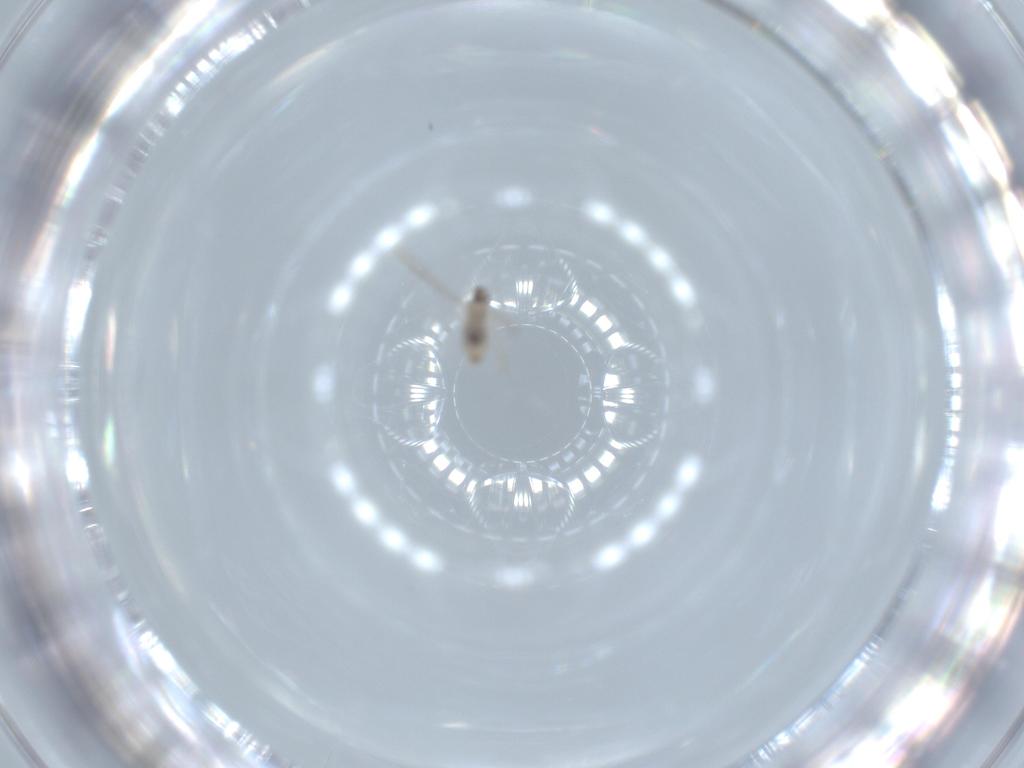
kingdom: Animalia
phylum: Arthropoda
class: Insecta
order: Diptera
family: Cecidomyiidae
